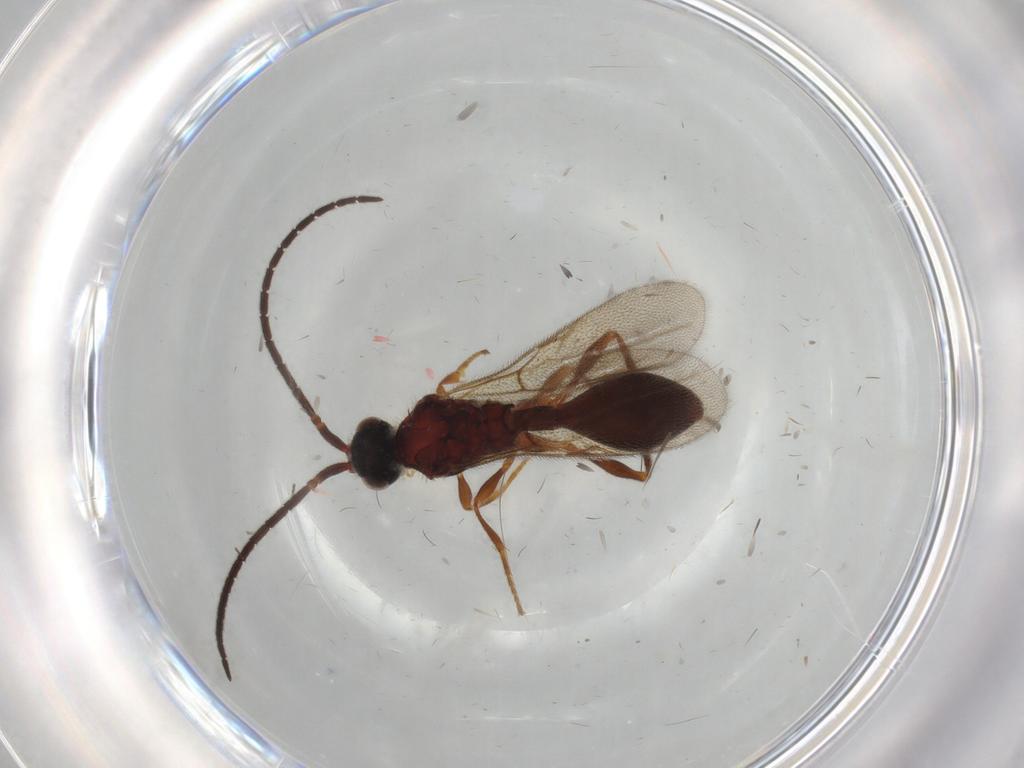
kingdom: Animalia
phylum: Arthropoda
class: Insecta
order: Hymenoptera
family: Diapriidae
